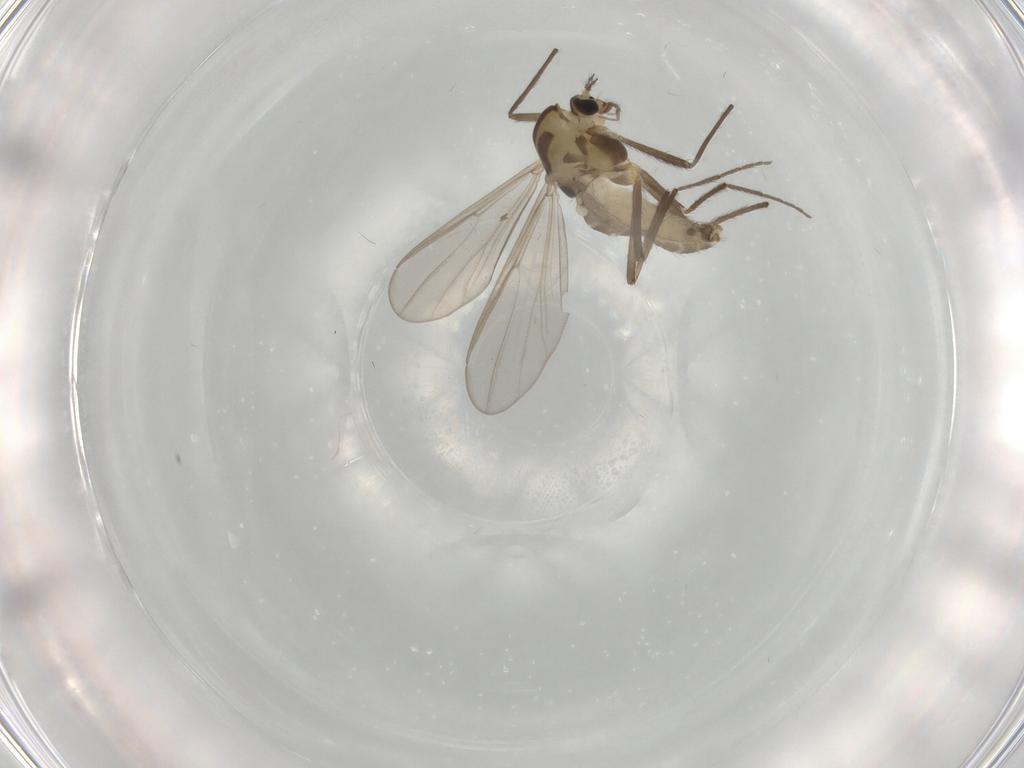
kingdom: Animalia
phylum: Arthropoda
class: Insecta
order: Diptera
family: Chironomidae
